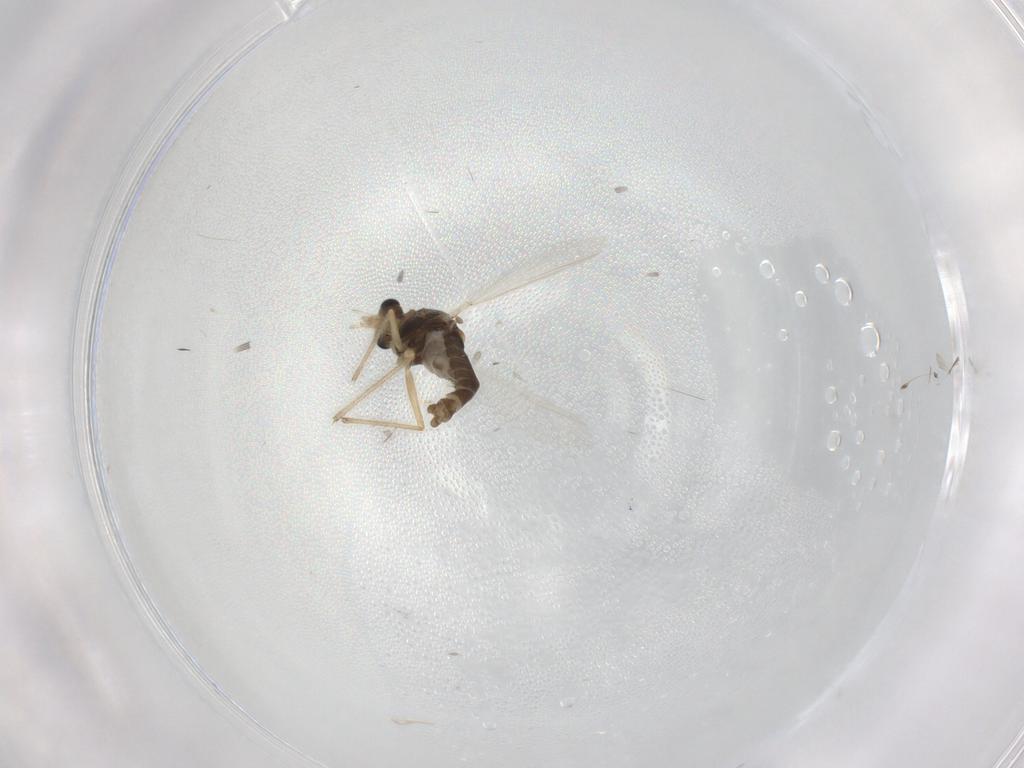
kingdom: Animalia
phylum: Arthropoda
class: Insecta
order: Diptera
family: Chironomidae
